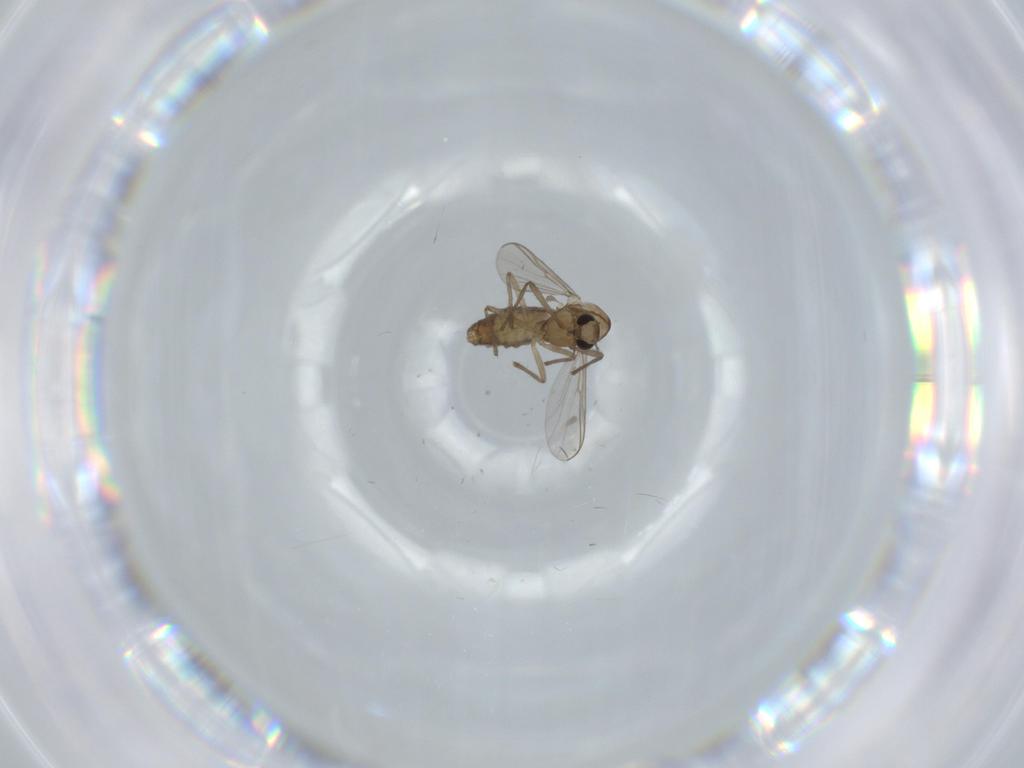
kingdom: Animalia
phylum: Arthropoda
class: Insecta
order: Diptera
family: Chironomidae
